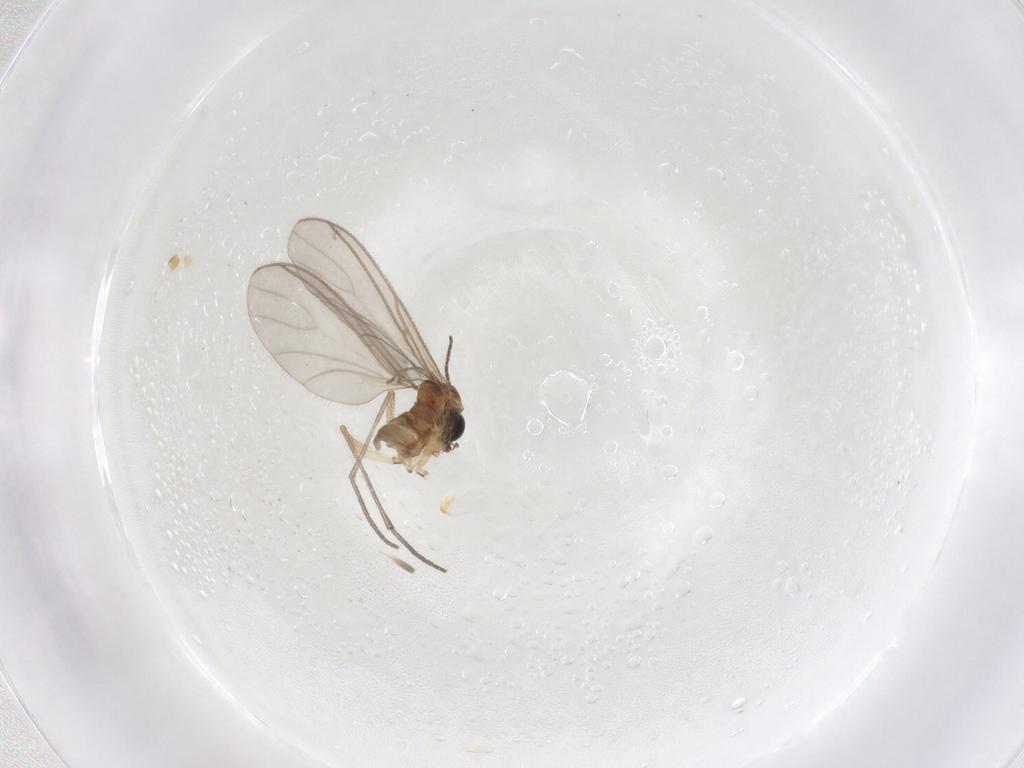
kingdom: Animalia
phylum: Arthropoda
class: Insecta
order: Diptera
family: Sciaridae
